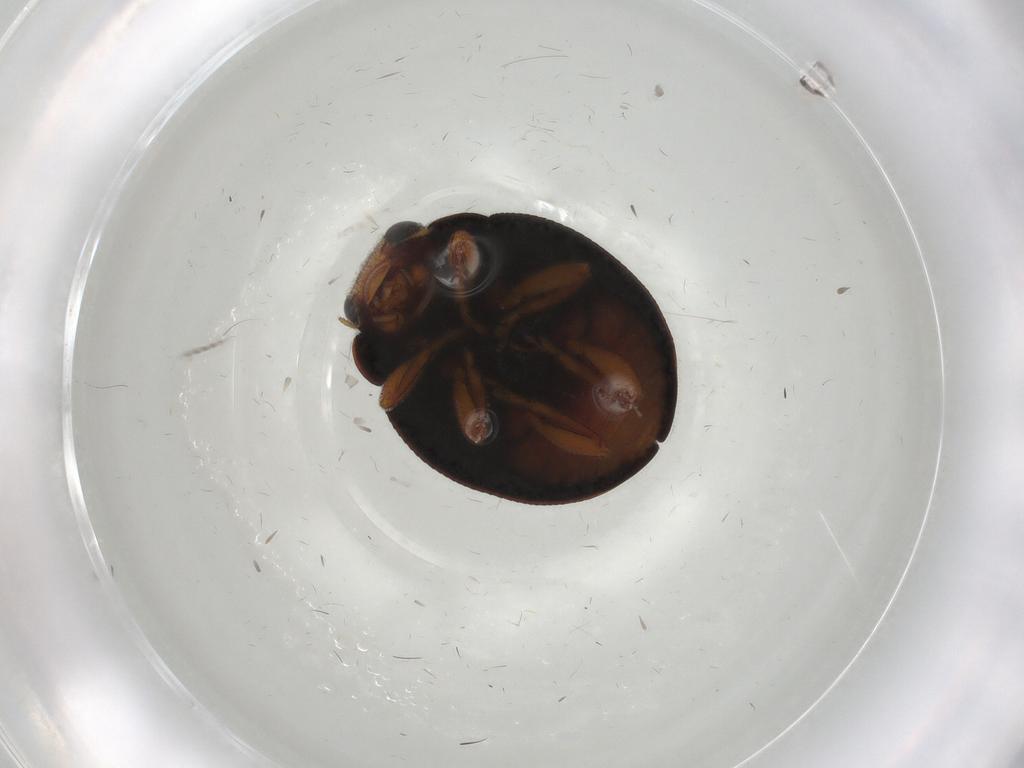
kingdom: Animalia
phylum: Arthropoda
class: Insecta
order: Coleoptera
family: Coccinellidae
